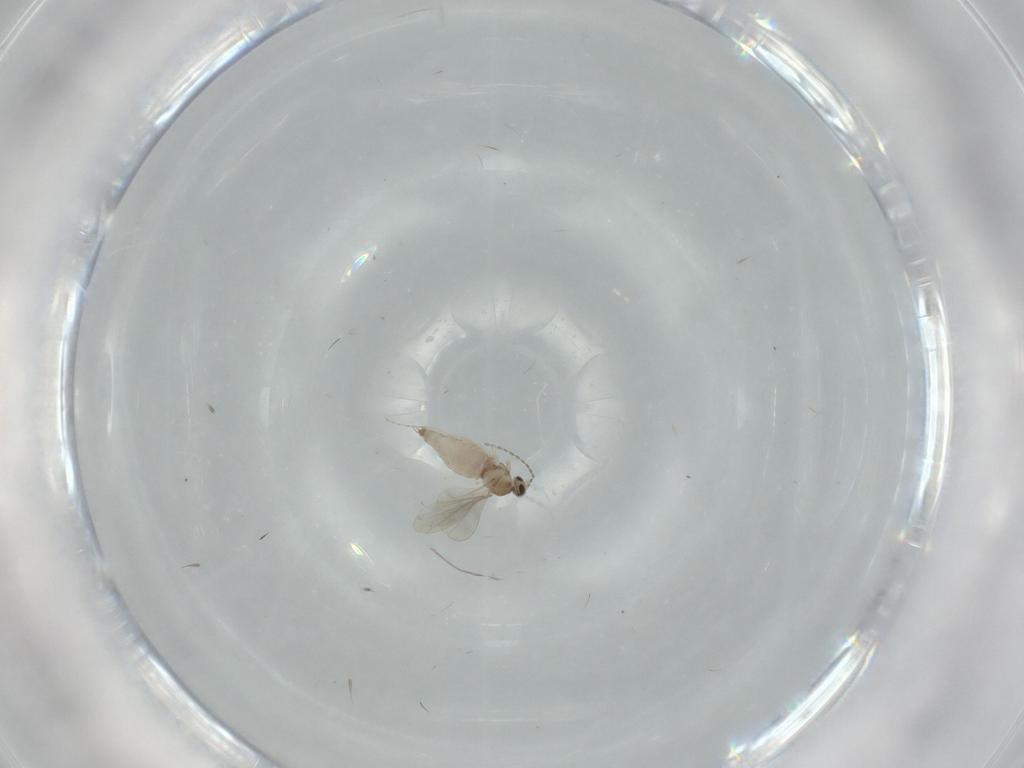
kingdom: Animalia
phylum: Arthropoda
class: Insecta
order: Diptera
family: Cecidomyiidae
